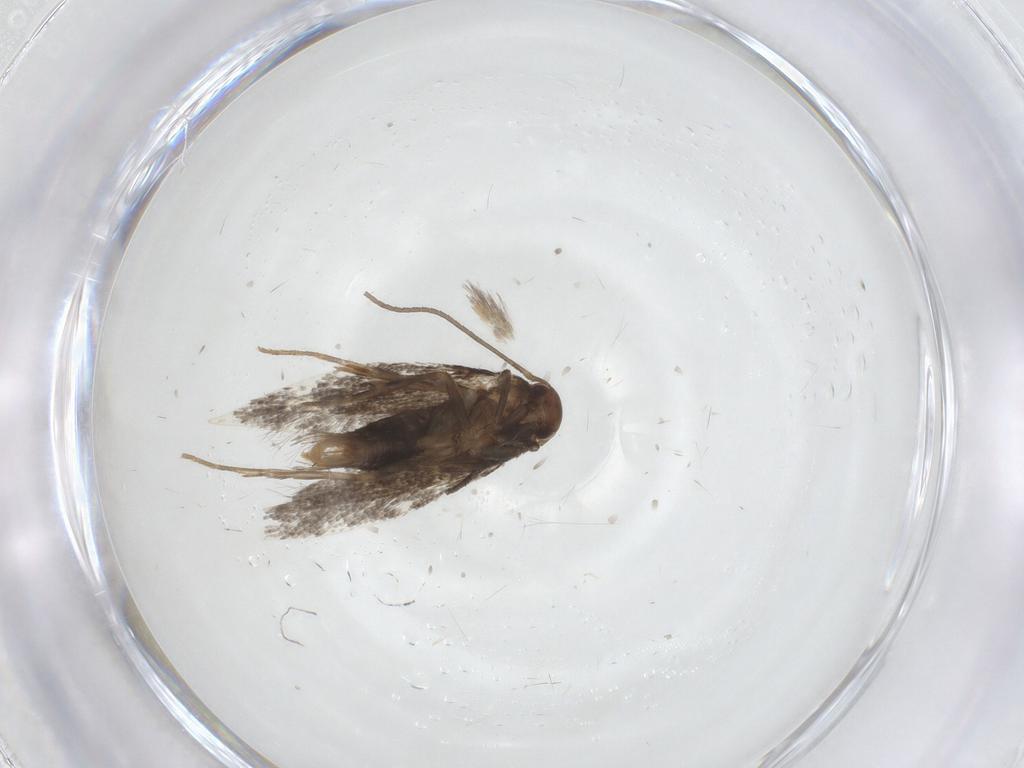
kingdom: Animalia
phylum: Arthropoda
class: Insecta
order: Lepidoptera
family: Elachistidae
